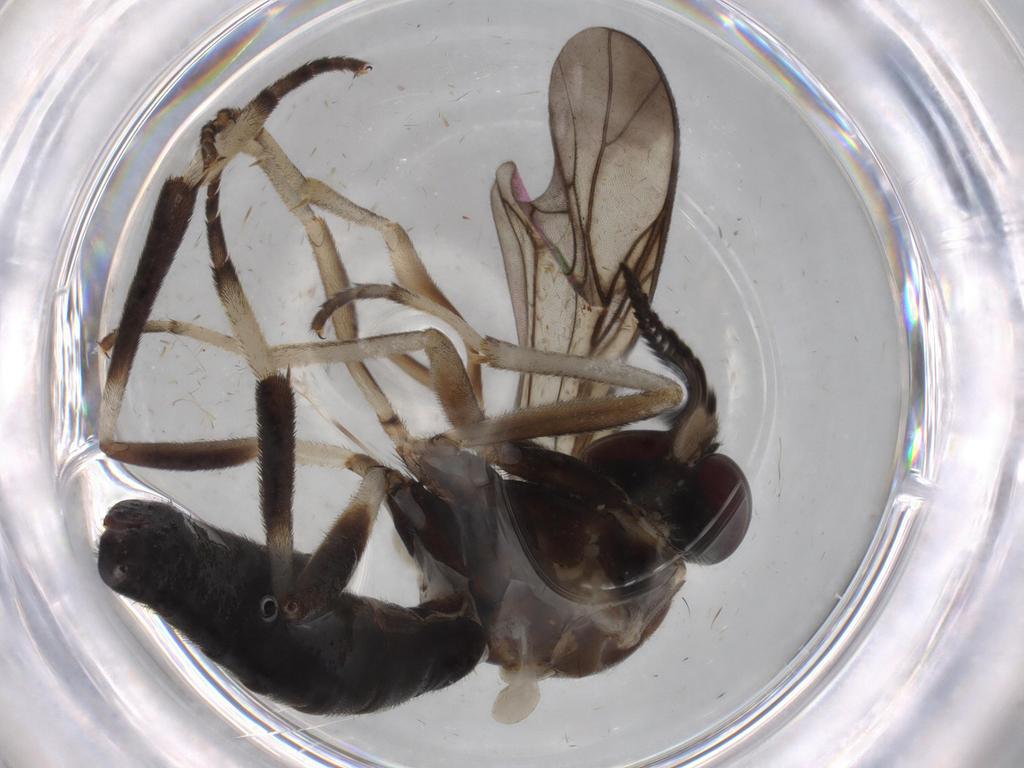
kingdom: Animalia
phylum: Arthropoda
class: Insecta
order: Diptera
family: Xylophagidae
